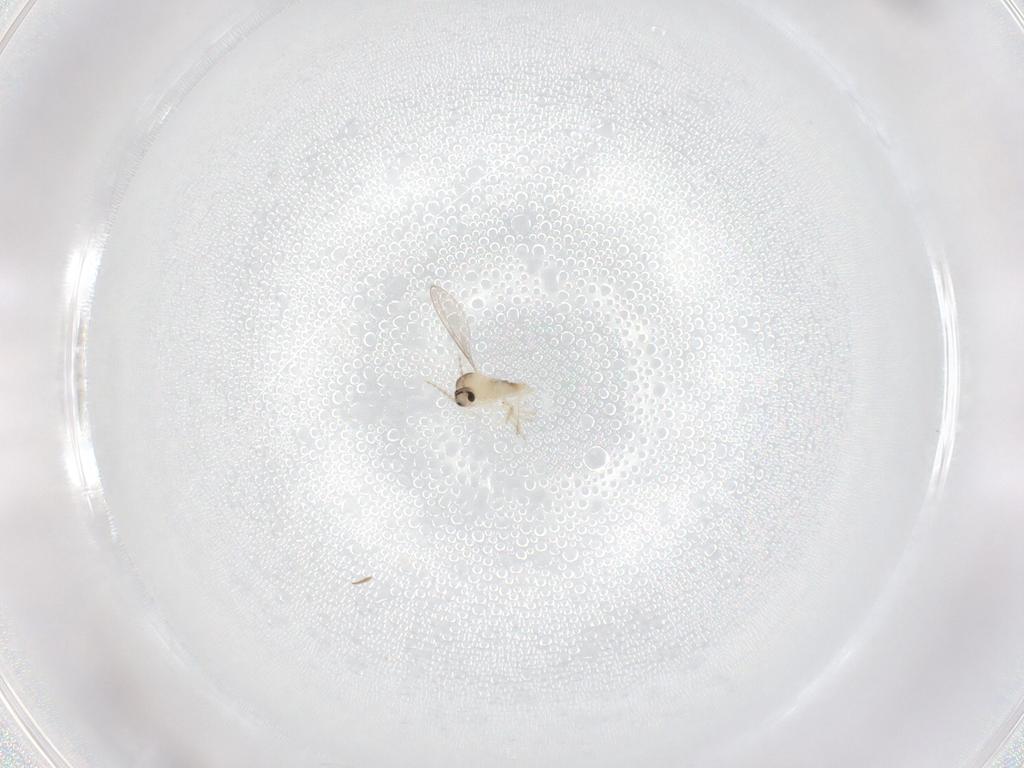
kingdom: Animalia
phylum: Arthropoda
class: Insecta
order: Diptera
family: Cecidomyiidae
